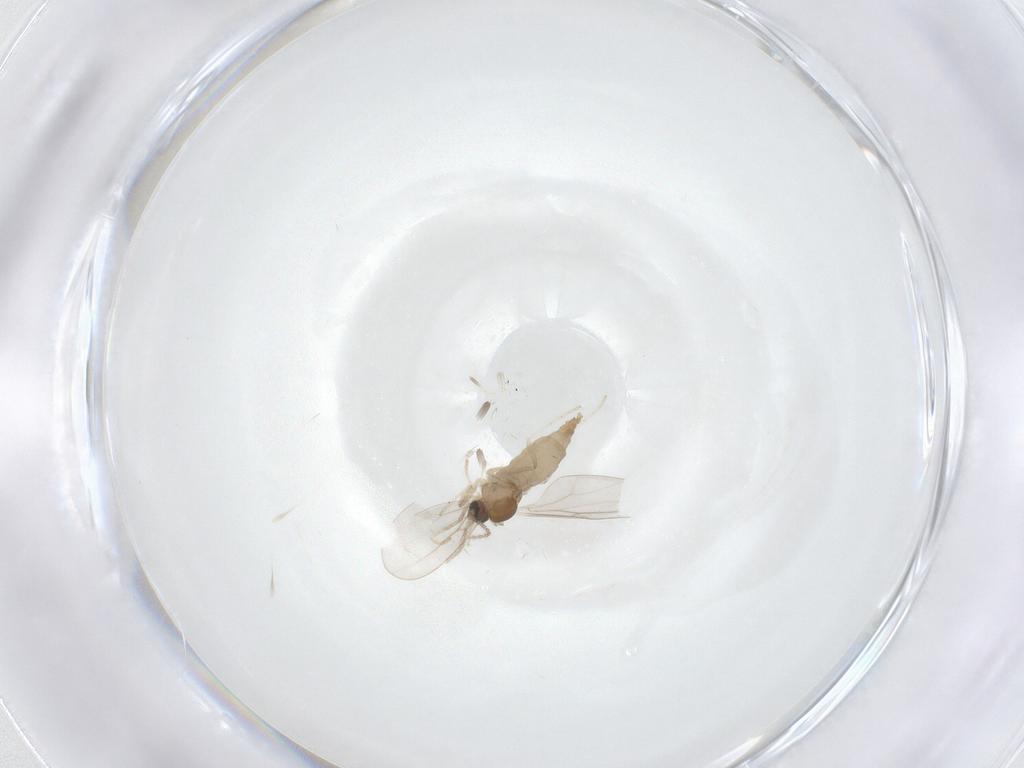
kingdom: Animalia
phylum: Arthropoda
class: Insecta
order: Diptera
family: Cecidomyiidae
